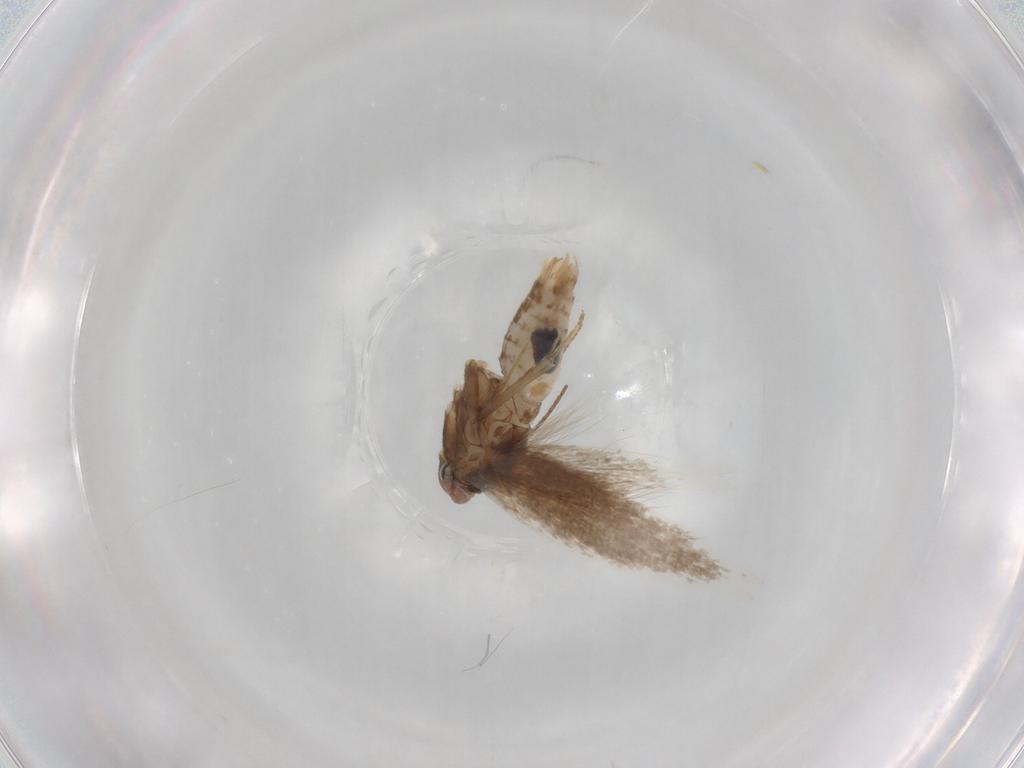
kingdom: Animalia
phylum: Arthropoda
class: Insecta
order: Lepidoptera
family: Bucculatricidae
